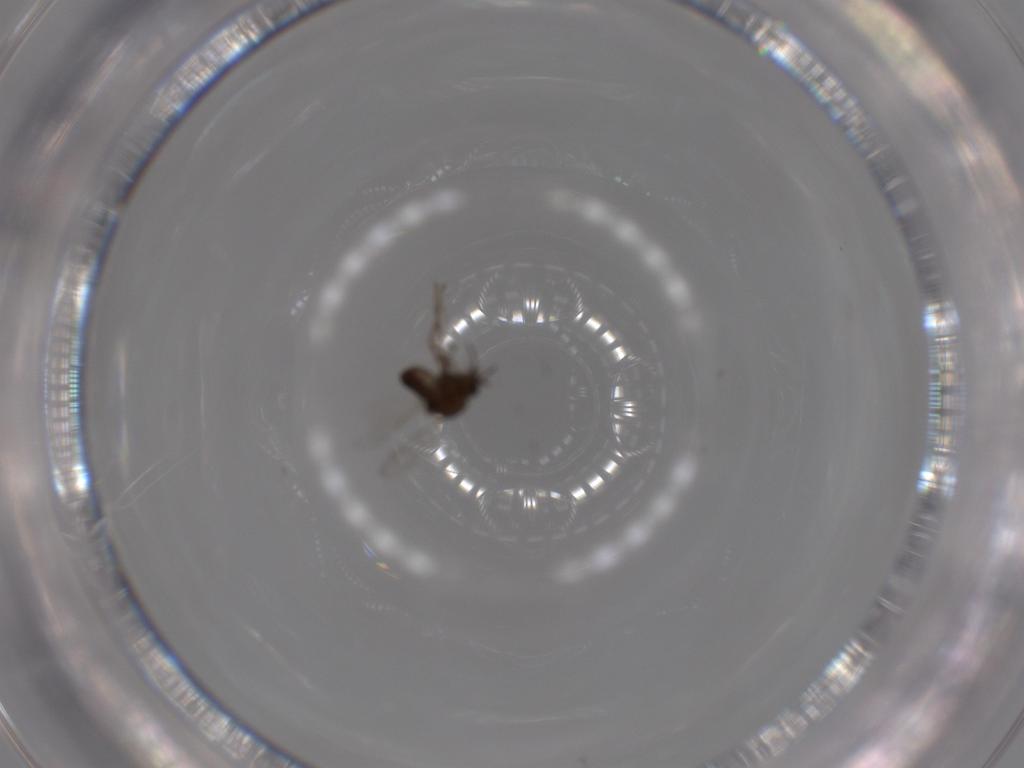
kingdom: Animalia
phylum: Arthropoda
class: Insecta
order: Diptera
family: Ceratopogonidae
